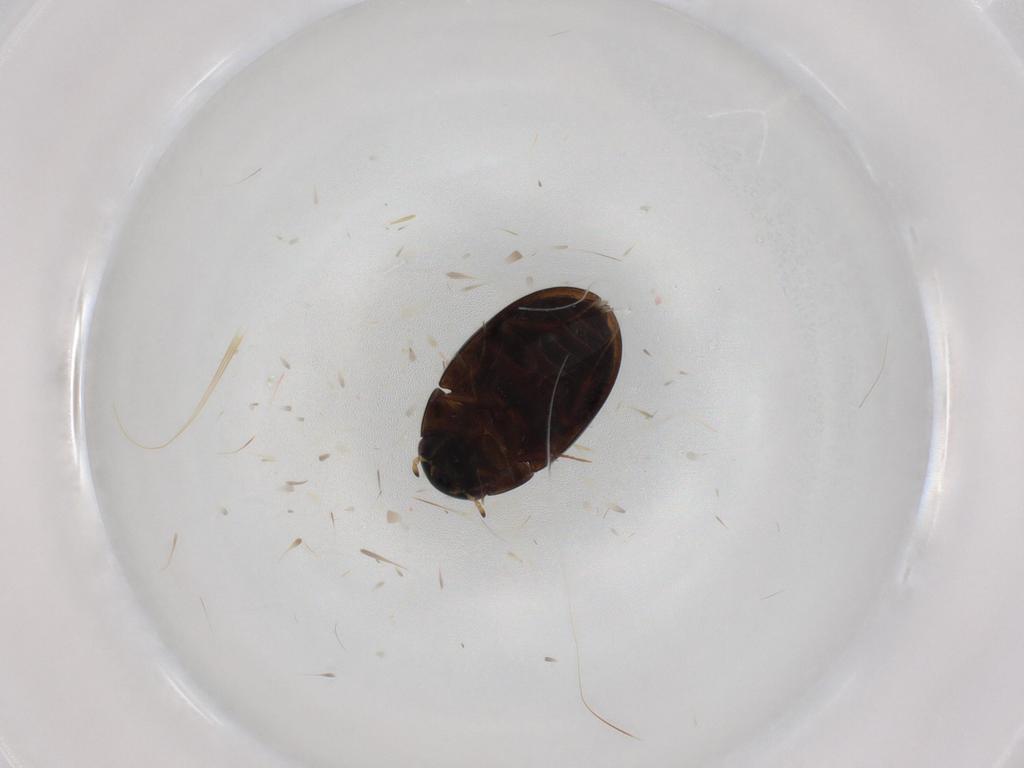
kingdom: Animalia
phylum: Arthropoda
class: Insecta
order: Coleoptera
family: Hydrophilidae
